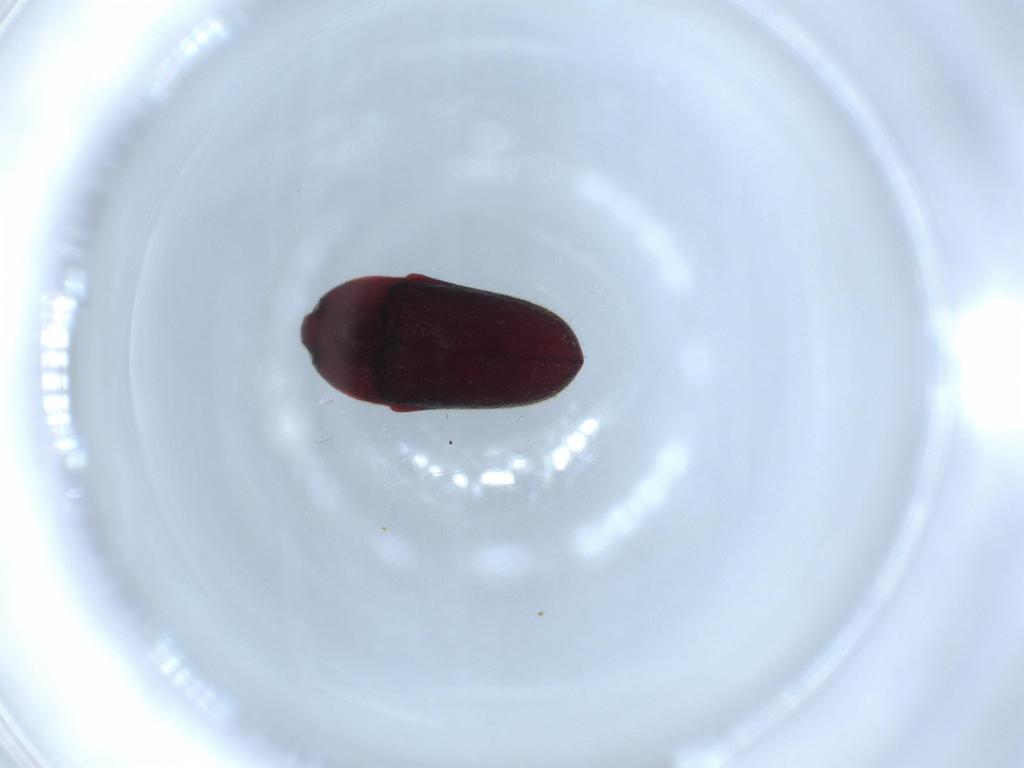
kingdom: Animalia
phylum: Arthropoda
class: Insecta
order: Coleoptera
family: Throscidae
